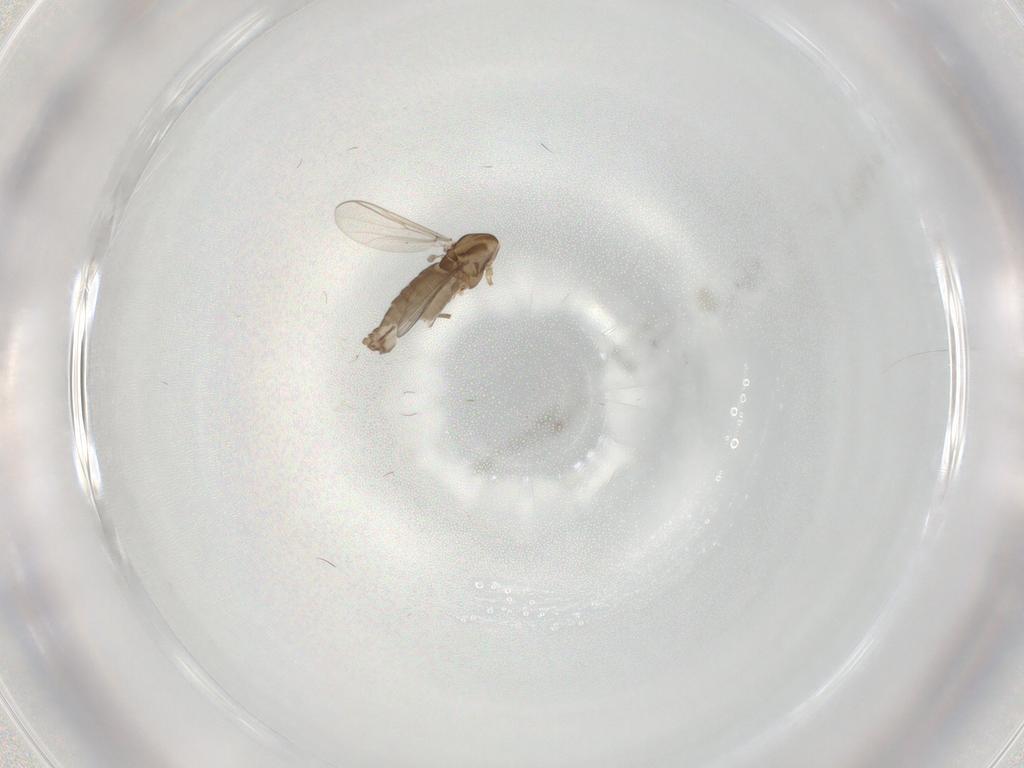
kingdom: Animalia
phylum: Arthropoda
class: Insecta
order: Diptera
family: Chironomidae
